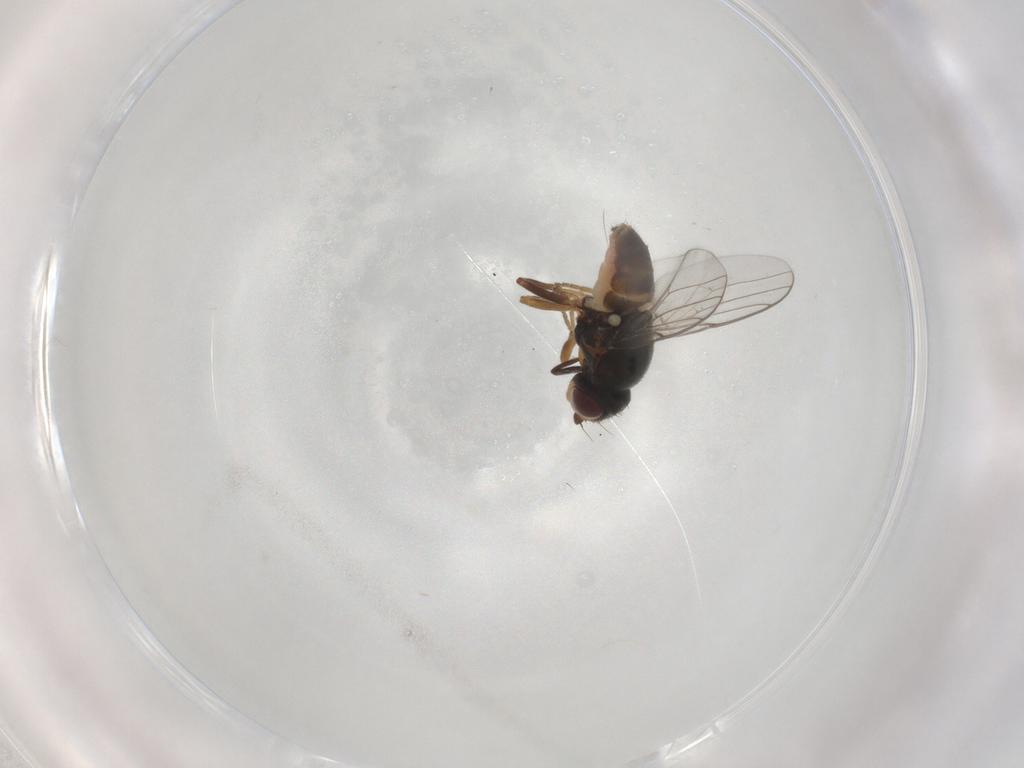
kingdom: Animalia
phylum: Arthropoda
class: Insecta
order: Diptera
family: Chloropidae
